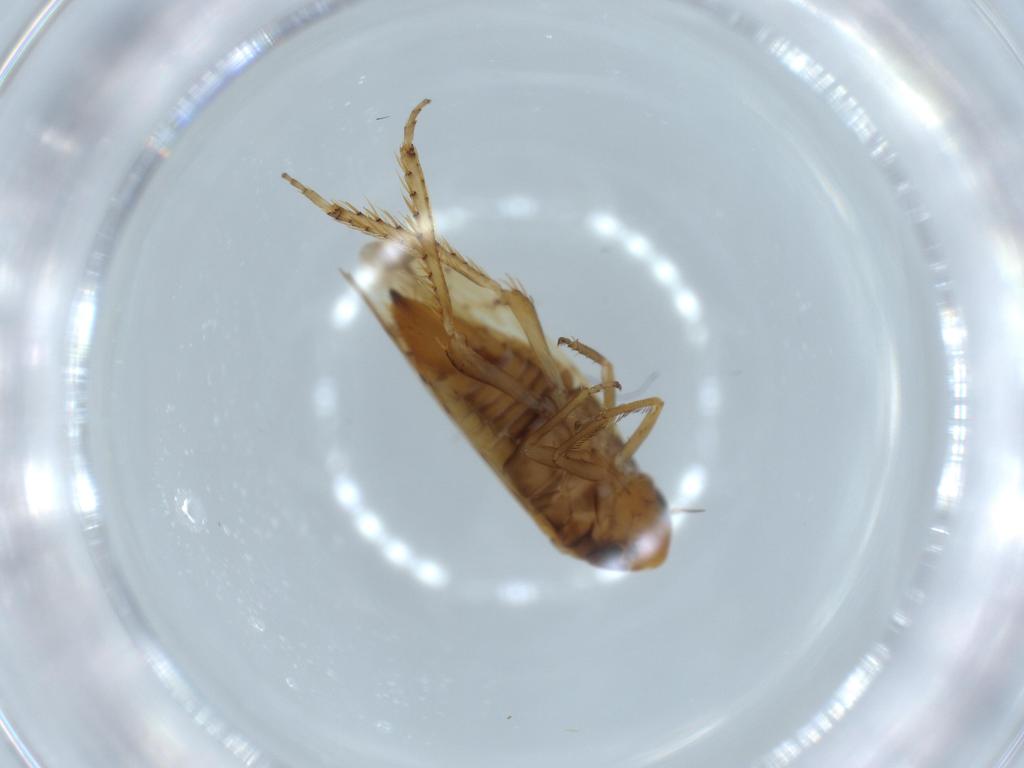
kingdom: Animalia
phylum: Arthropoda
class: Insecta
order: Hemiptera
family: Cicadellidae
